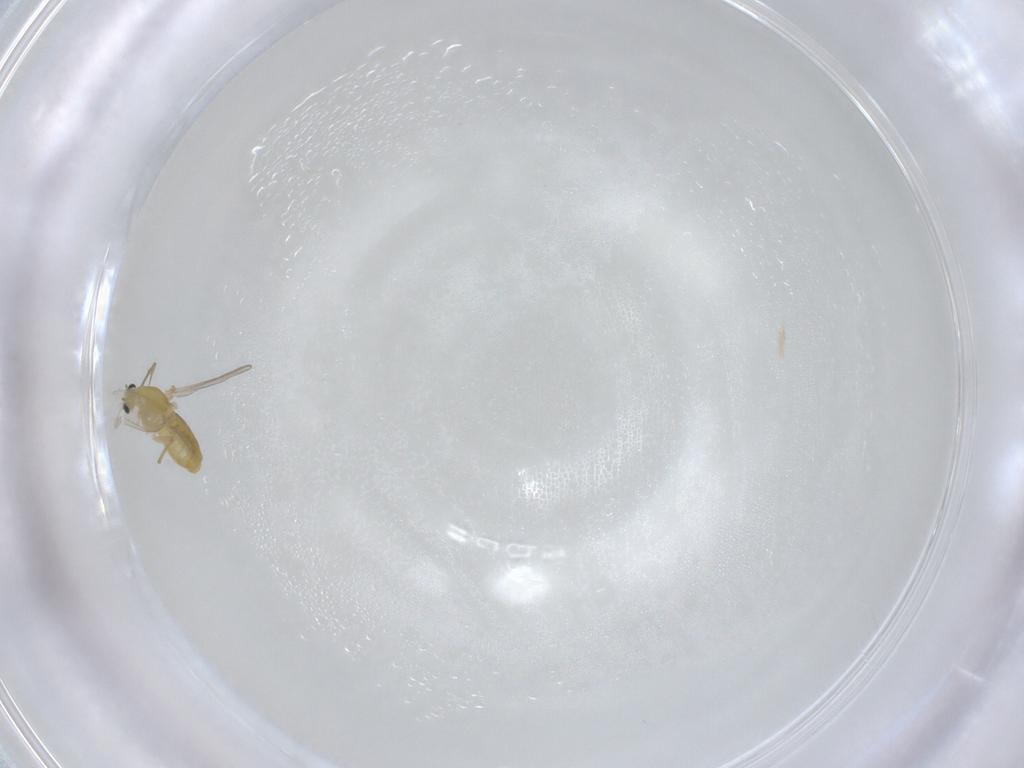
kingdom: Animalia
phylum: Arthropoda
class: Insecta
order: Diptera
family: Chironomidae
